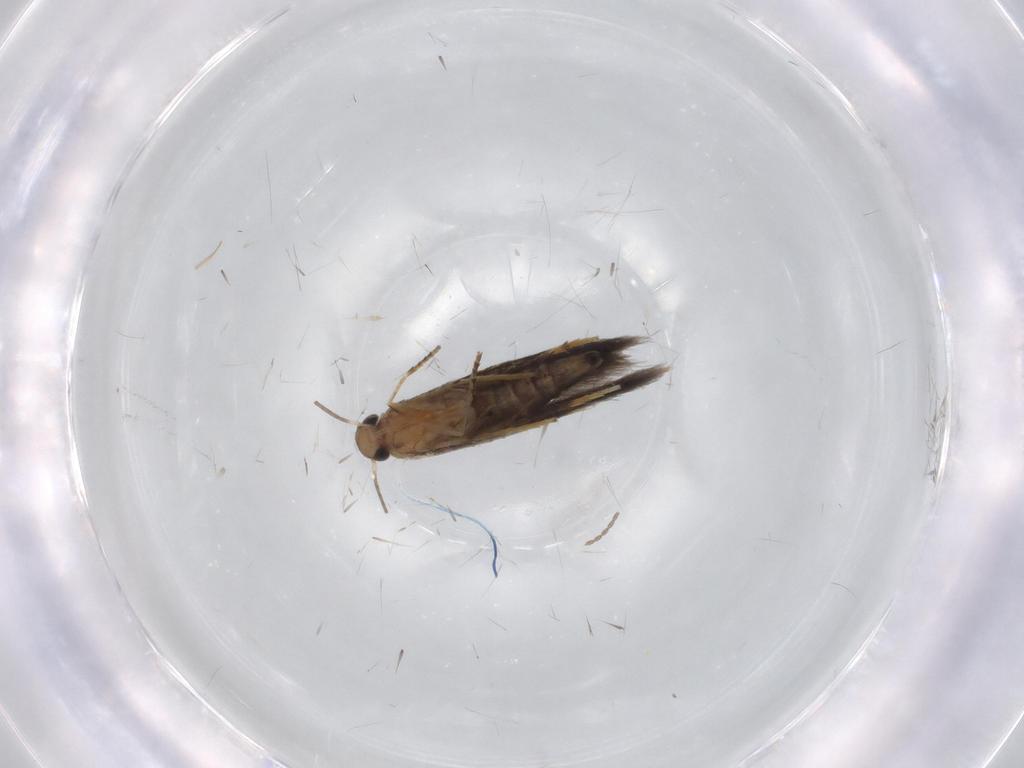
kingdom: Animalia
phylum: Arthropoda
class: Insecta
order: Lepidoptera
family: Heliozelidae
